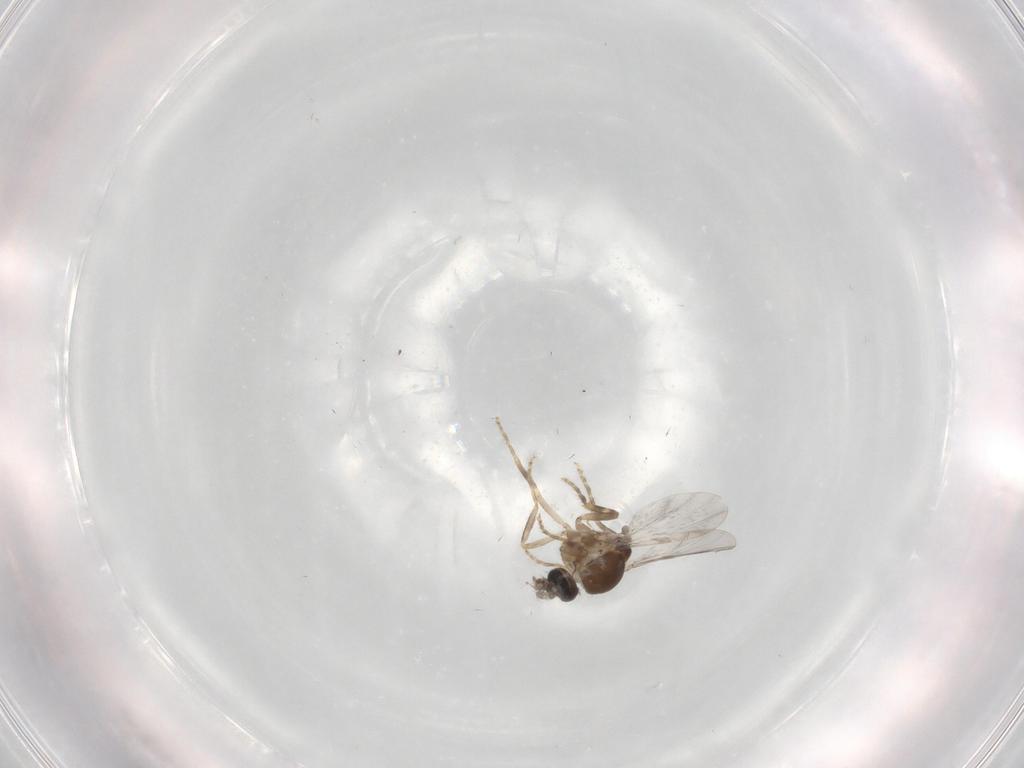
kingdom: Animalia
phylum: Arthropoda
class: Insecta
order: Diptera
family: Ceratopogonidae
